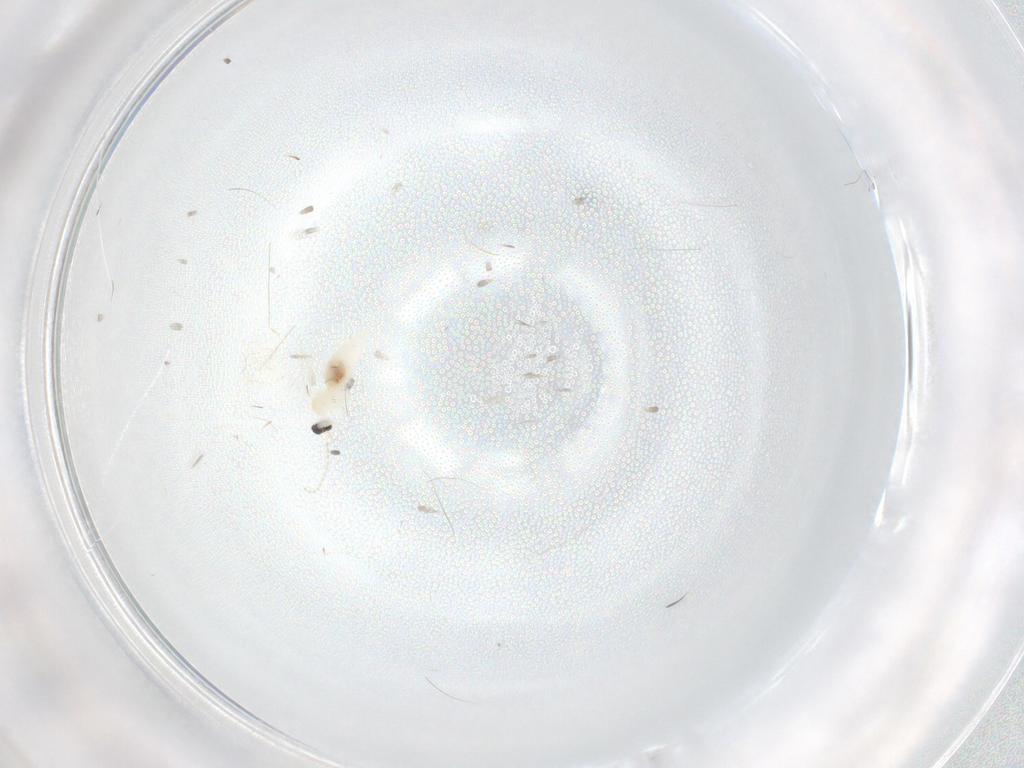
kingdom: Animalia
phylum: Arthropoda
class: Insecta
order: Diptera
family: Cecidomyiidae
